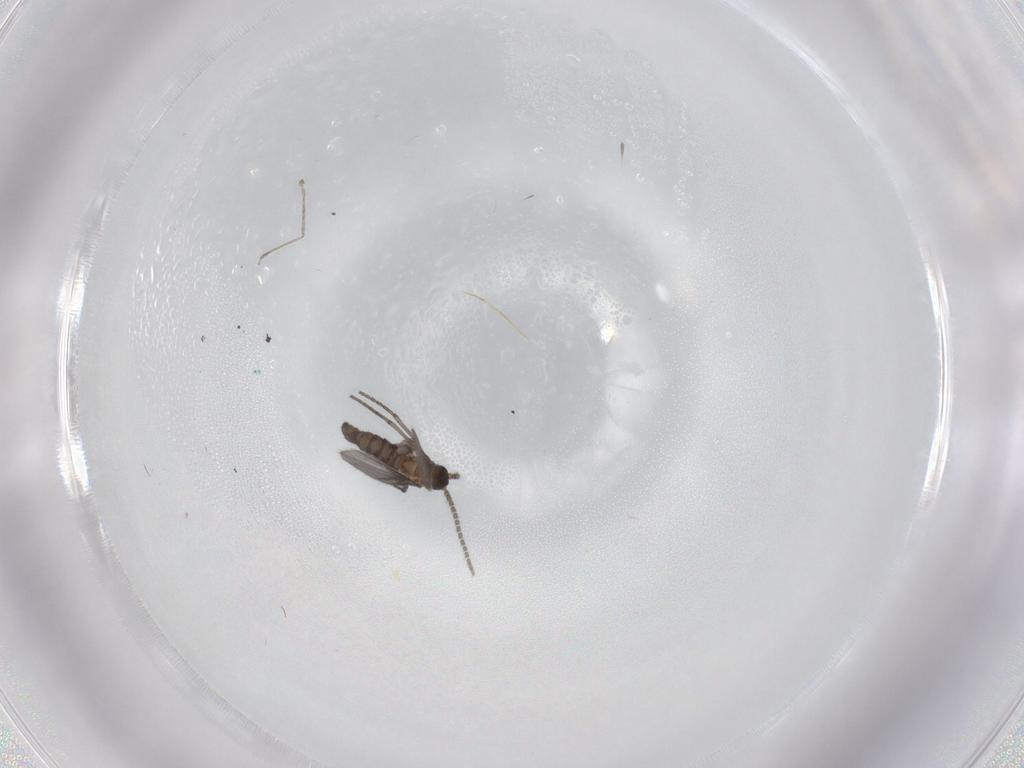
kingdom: Animalia
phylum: Arthropoda
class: Insecta
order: Diptera
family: Sciaridae
